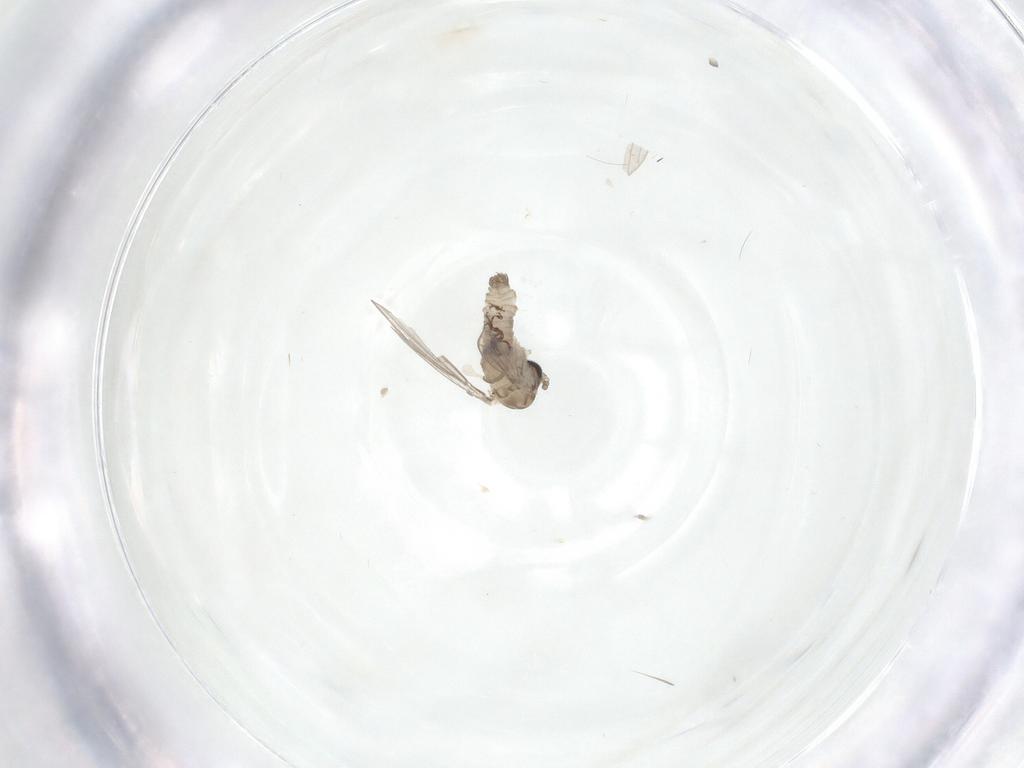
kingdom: Animalia
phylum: Arthropoda
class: Insecta
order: Diptera
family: Psychodidae
